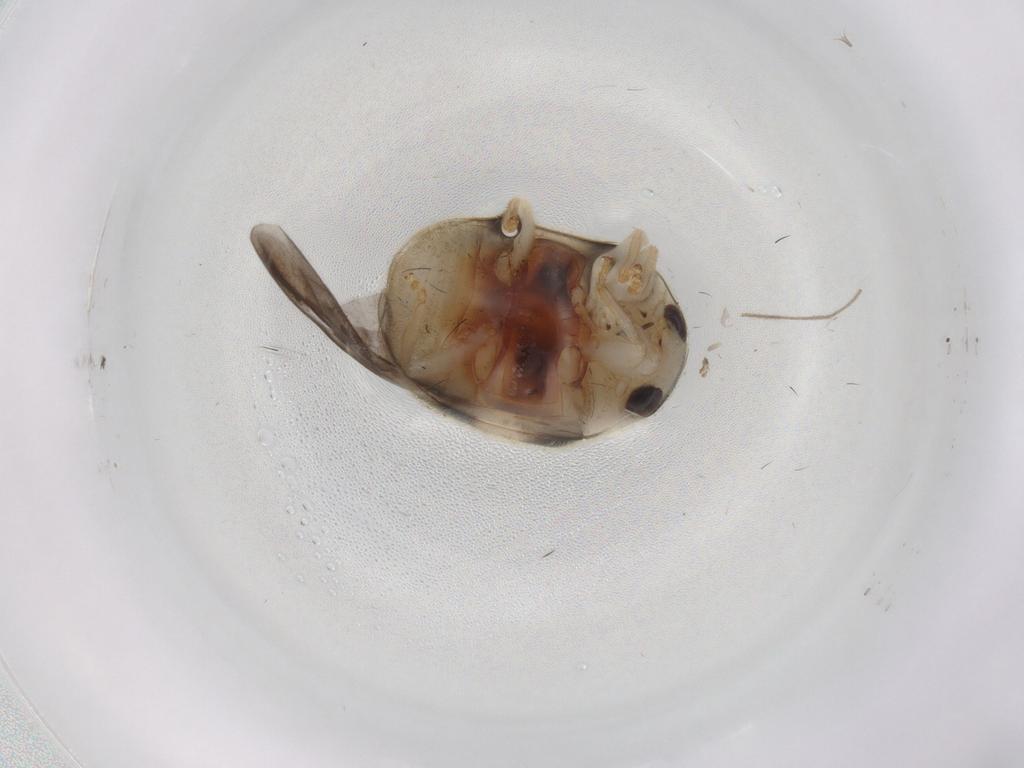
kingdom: Animalia
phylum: Arthropoda
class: Insecta
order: Coleoptera
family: Coccinellidae
